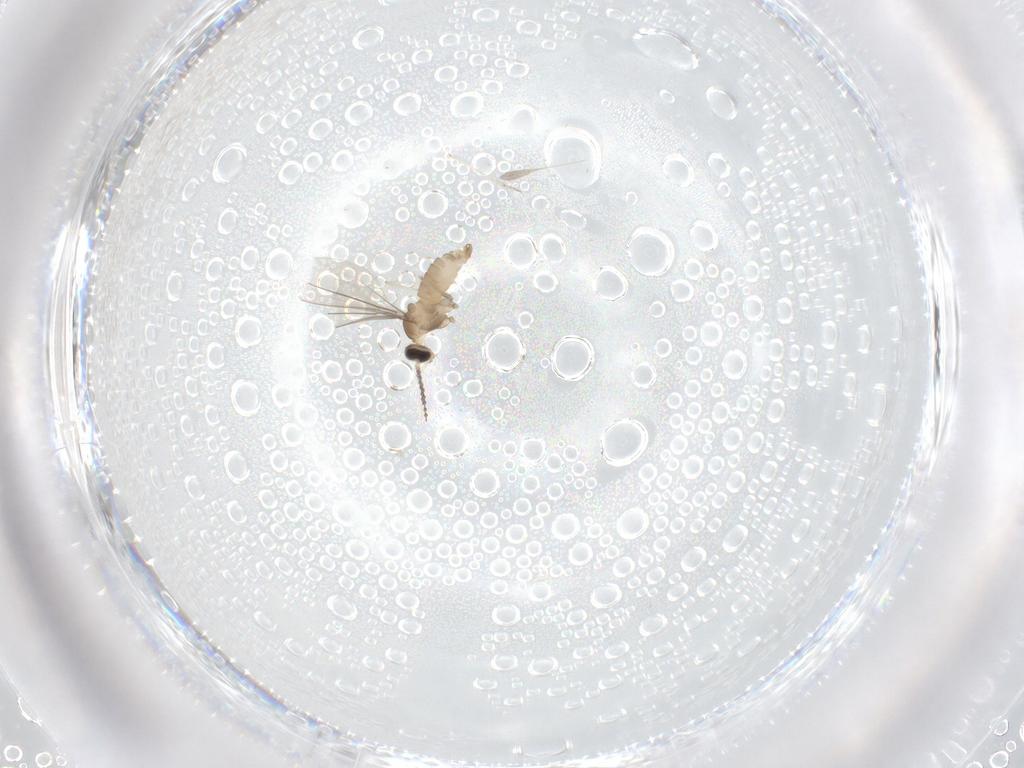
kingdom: Animalia
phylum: Arthropoda
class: Insecta
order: Diptera
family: Cecidomyiidae
